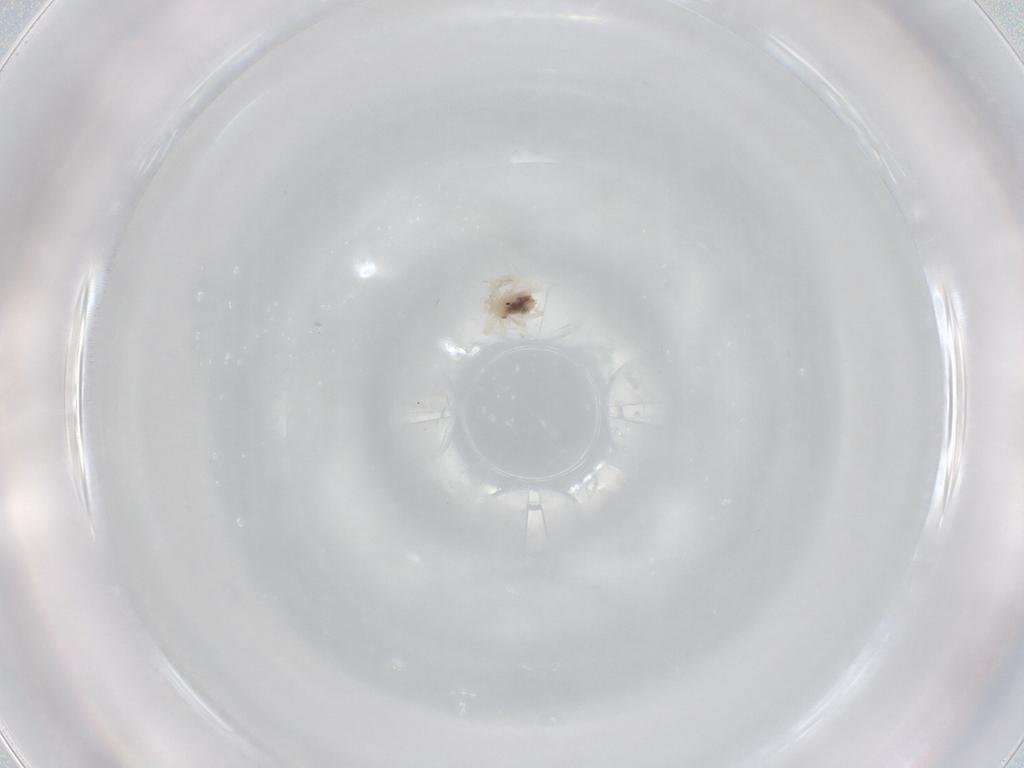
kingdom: Animalia
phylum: Arthropoda
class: Arachnida
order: Trombidiformes
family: Anystidae
